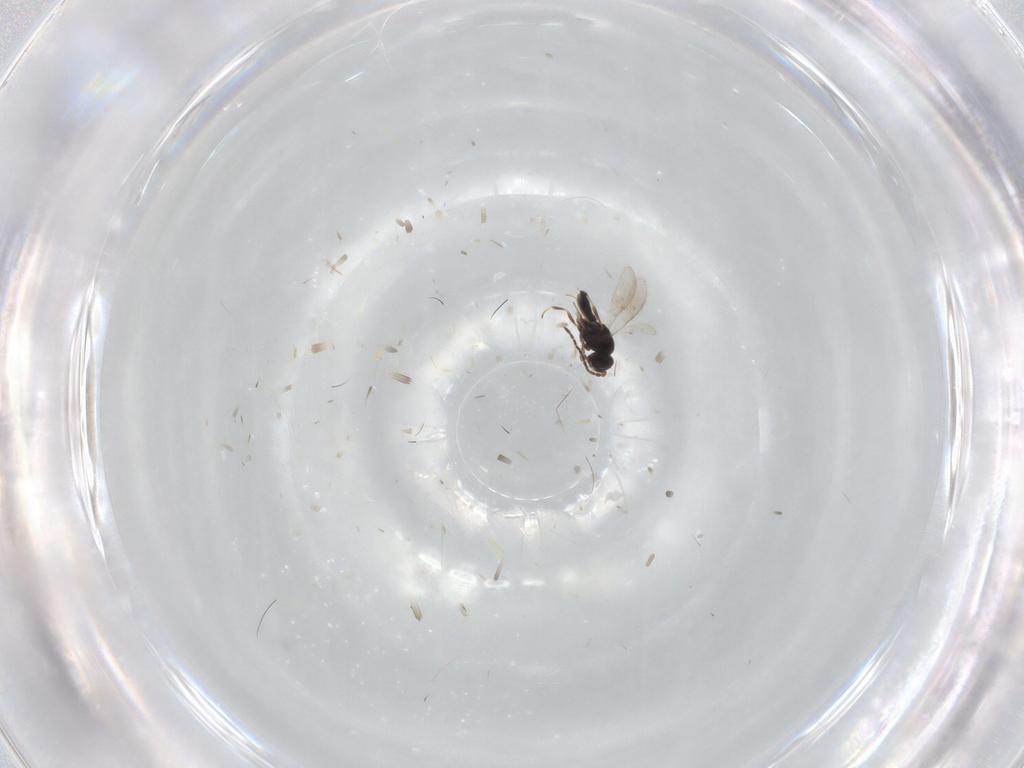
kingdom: Animalia
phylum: Arthropoda
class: Insecta
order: Hymenoptera
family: Scelionidae
